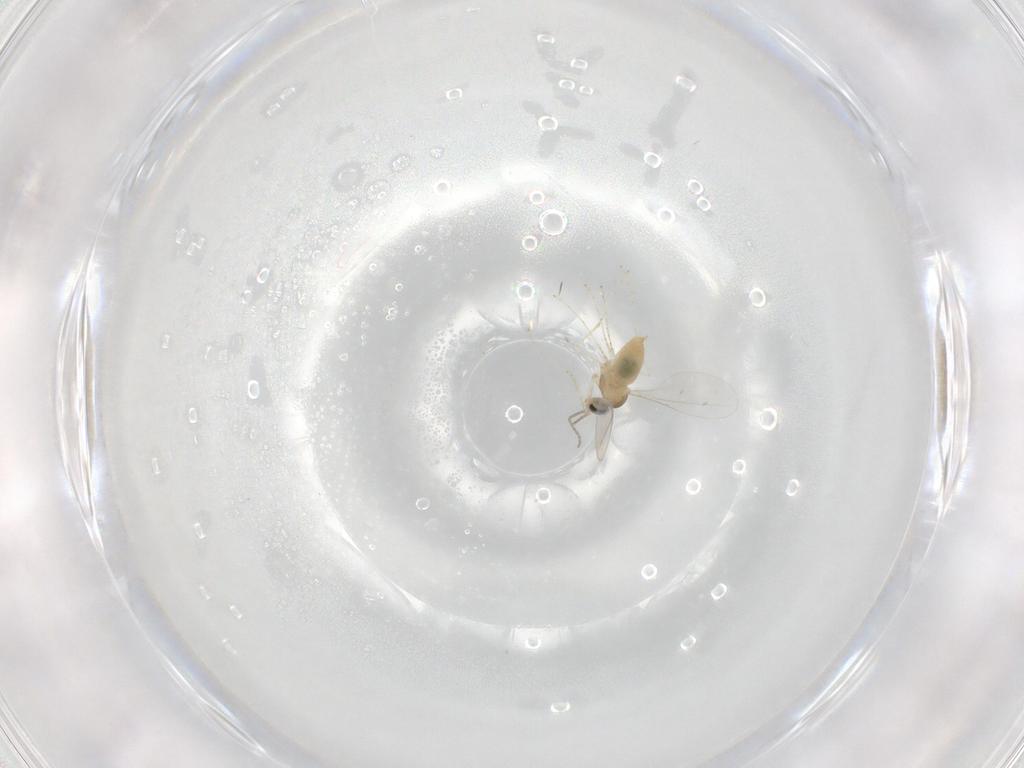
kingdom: Animalia
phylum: Arthropoda
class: Insecta
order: Diptera
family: Cecidomyiidae
